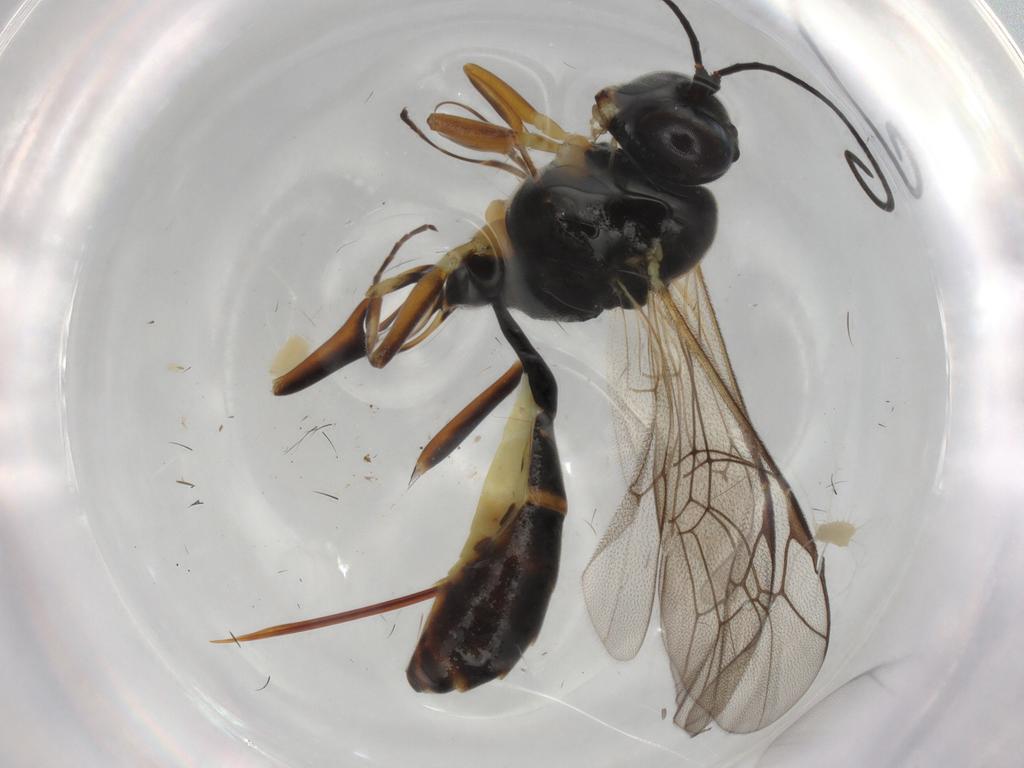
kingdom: Animalia
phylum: Arthropoda
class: Insecta
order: Hymenoptera
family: Ichneumonidae
